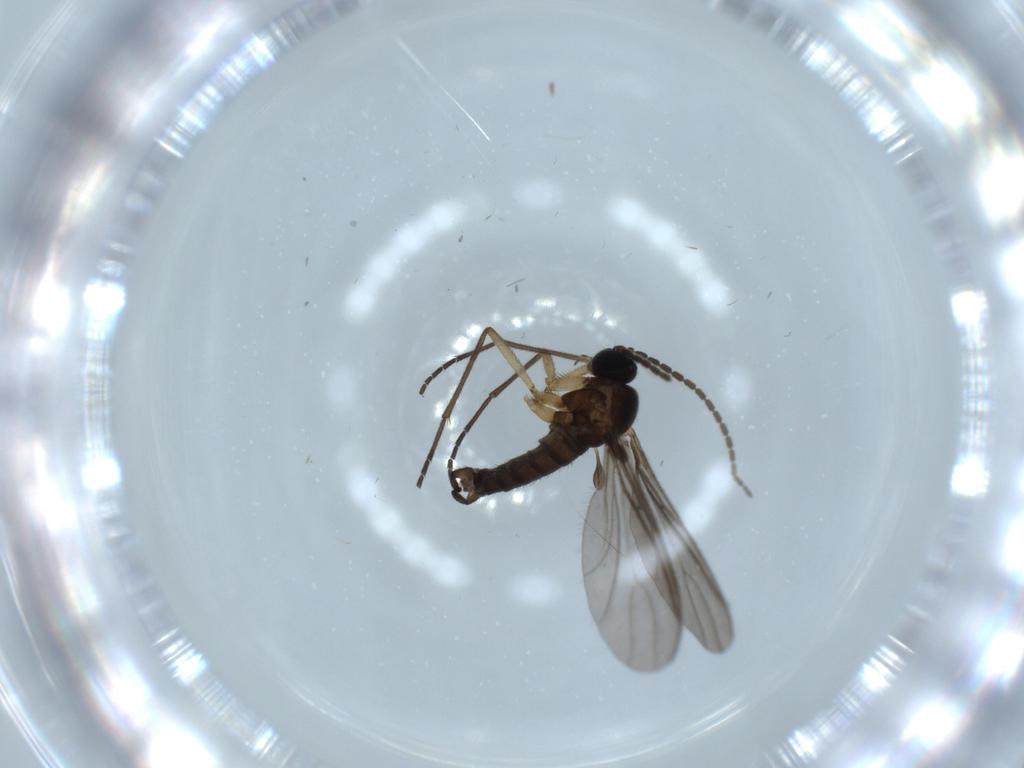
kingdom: Animalia
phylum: Arthropoda
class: Insecta
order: Diptera
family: Sciaridae
